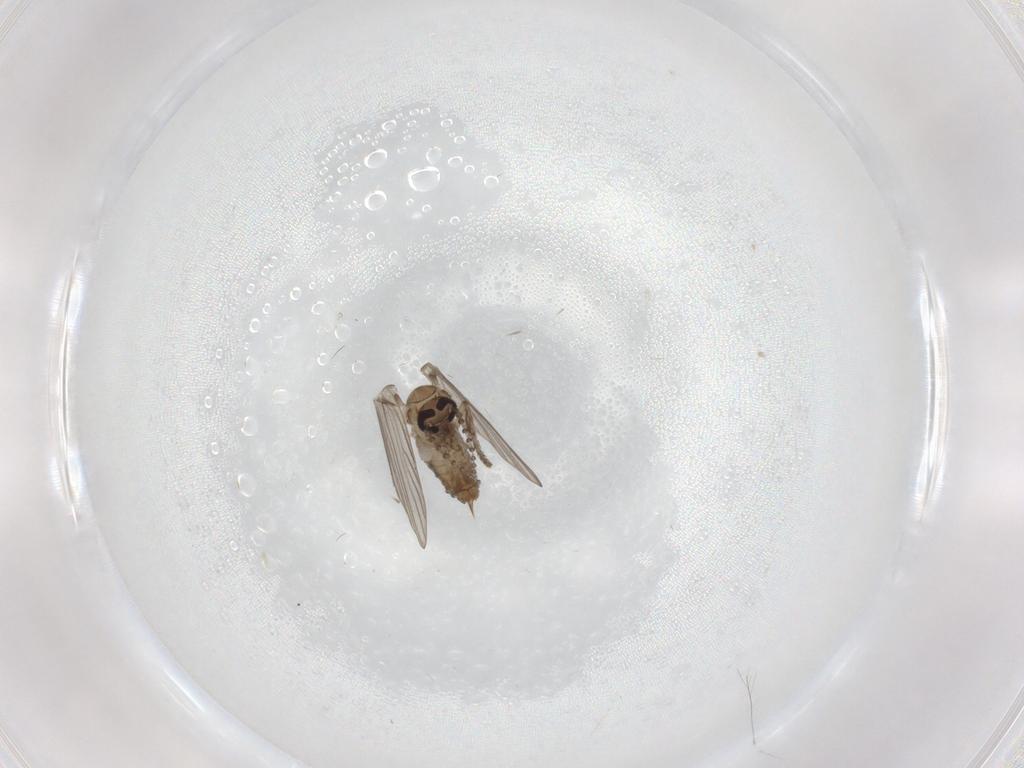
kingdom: Animalia
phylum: Arthropoda
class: Insecta
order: Diptera
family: Psychodidae
